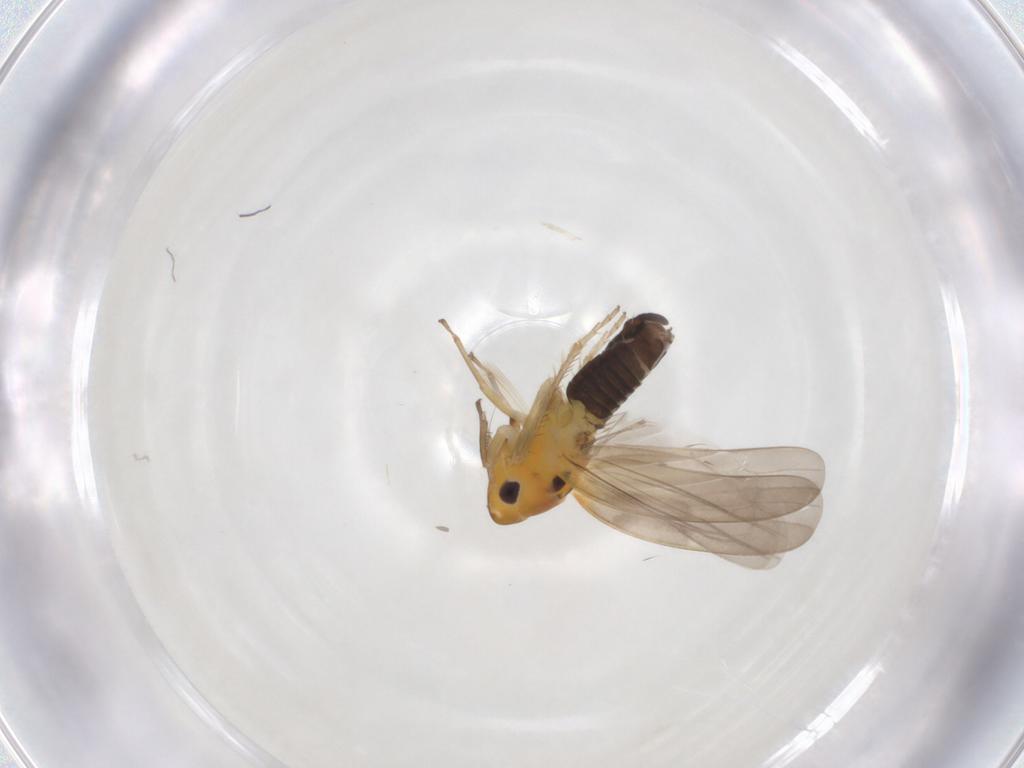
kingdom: Animalia
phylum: Arthropoda
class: Insecta
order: Hemiptera
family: Cicadellidae
